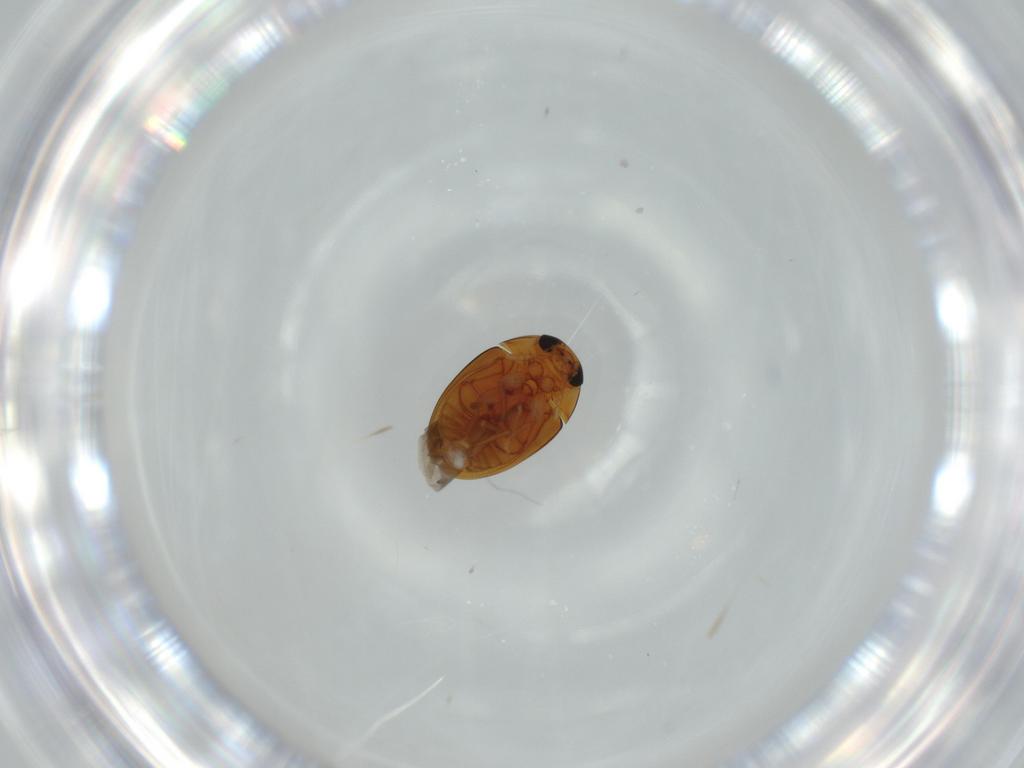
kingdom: Animalia
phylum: Arthropoda
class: Insecta
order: Coleoptera
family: Phalacridae
